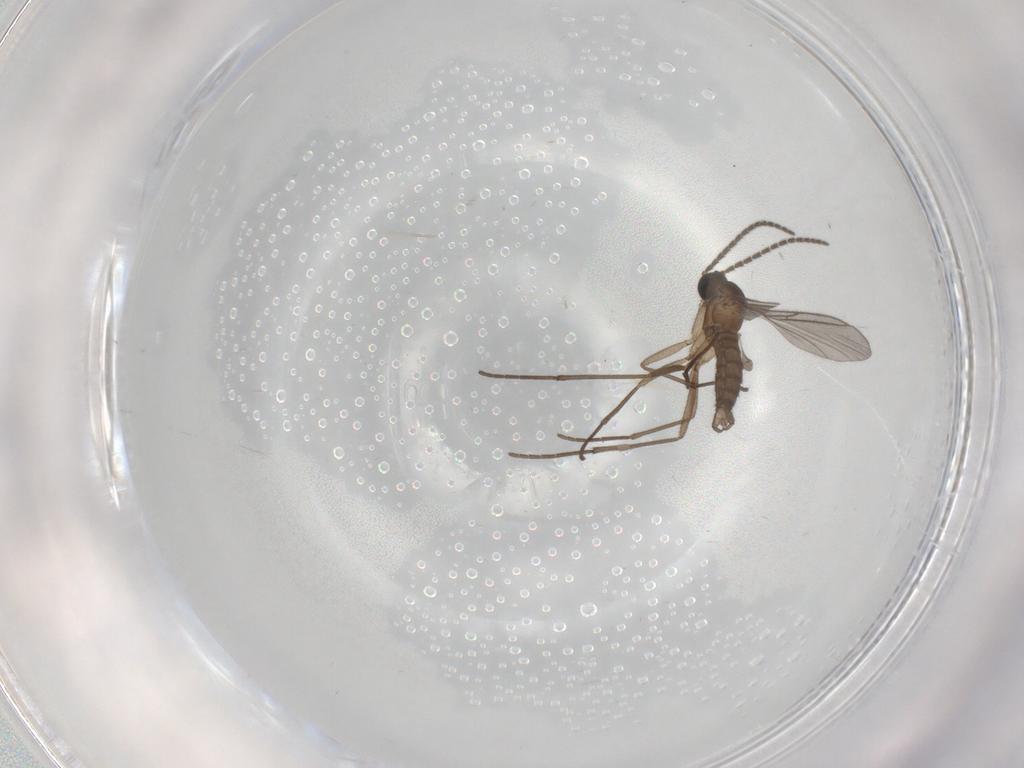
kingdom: Animalia
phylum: Arthropoda
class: Insecta
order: Diptera
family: Sciaridae
